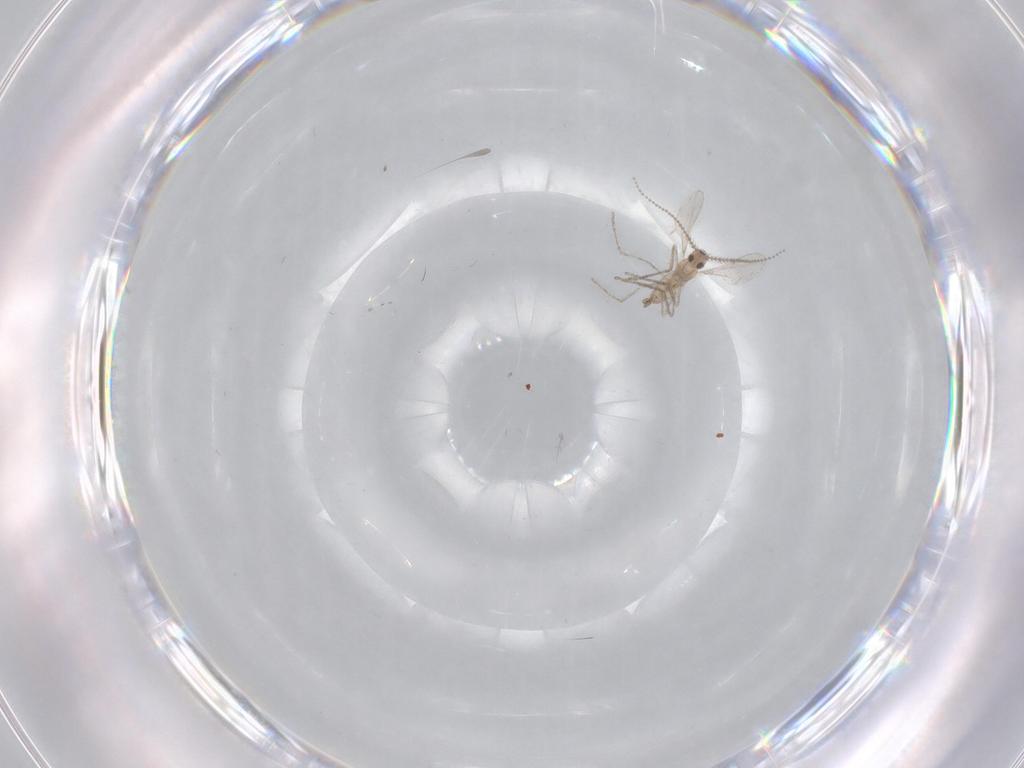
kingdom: Animalia
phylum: Arthropoda
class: Insecta
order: Diptera
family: Cecidomyiidae
